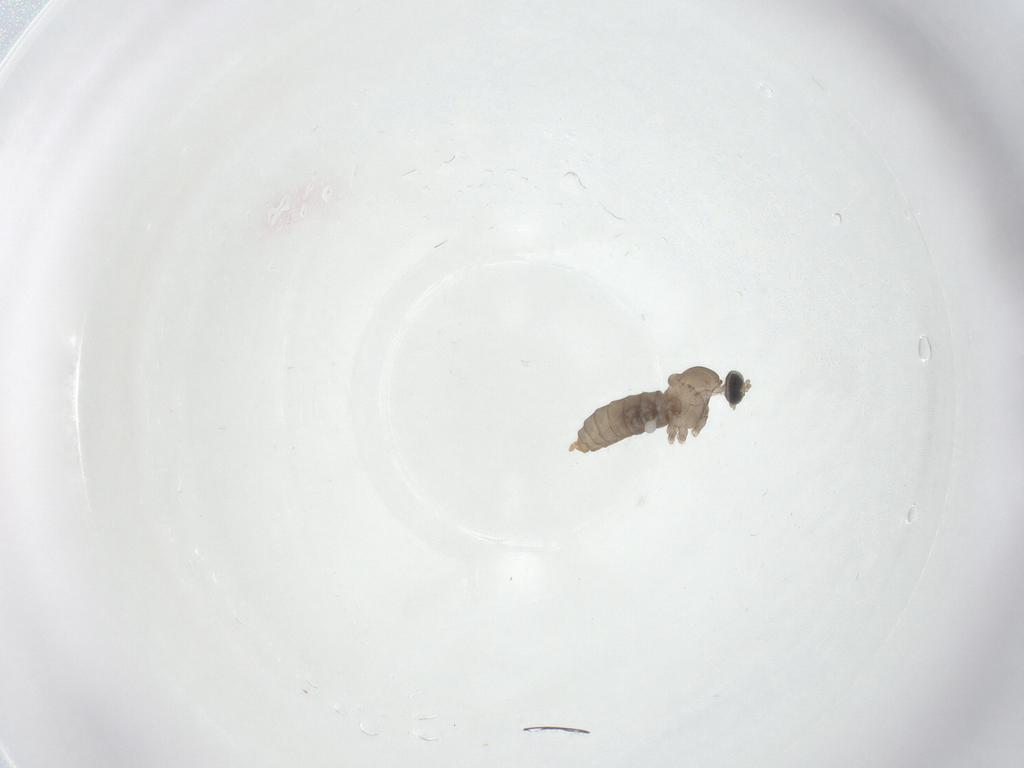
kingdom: Animalia
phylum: Arthropoda
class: Insecta
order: Diptera
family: Cecidomyiidae
